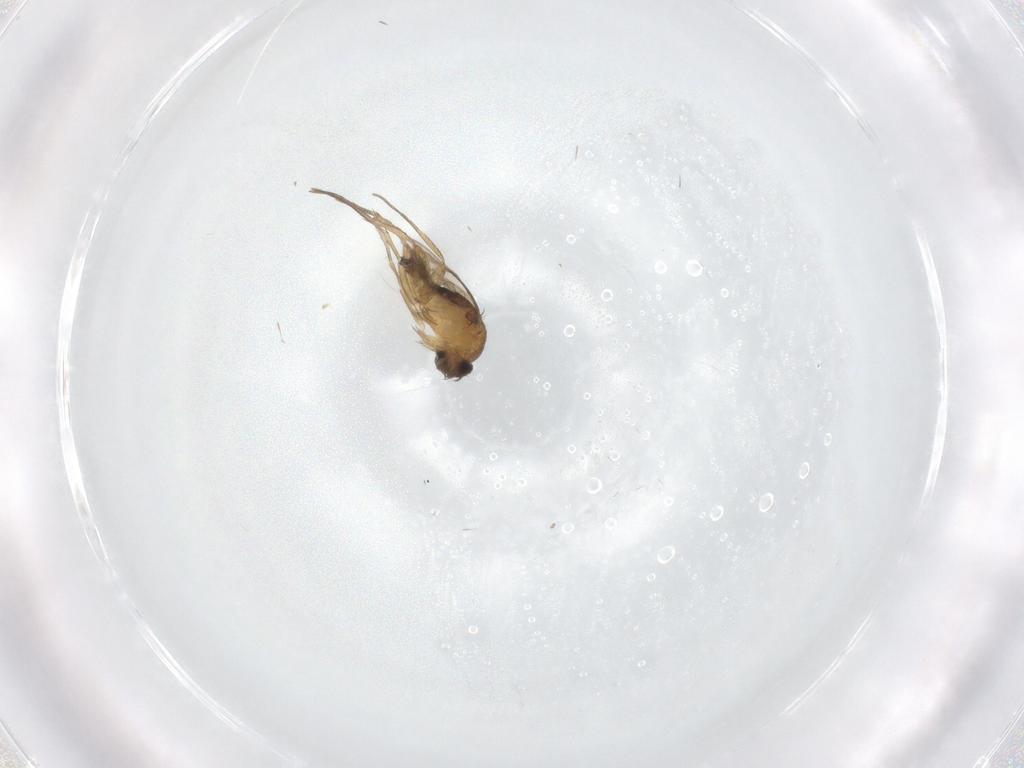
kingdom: Animalia
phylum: Arthropoda
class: Insecta
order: Diptera
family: Phoridae
